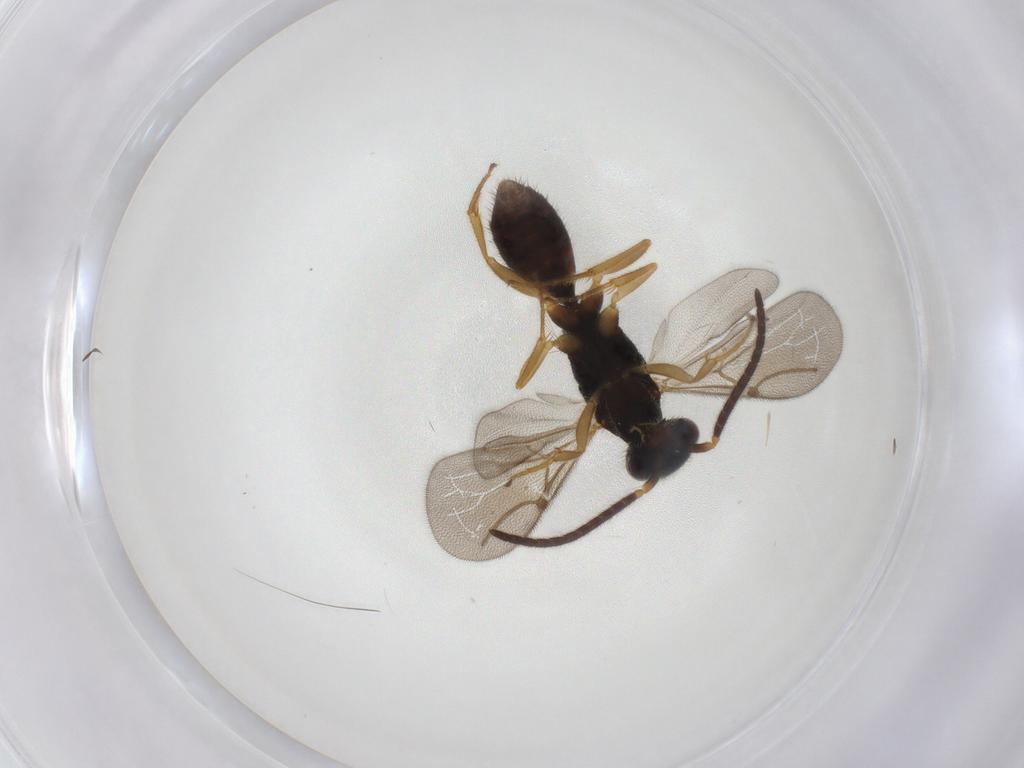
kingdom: Animalia
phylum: Arthropoda
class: Insecta
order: Hymenoptera
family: Bethylidae
